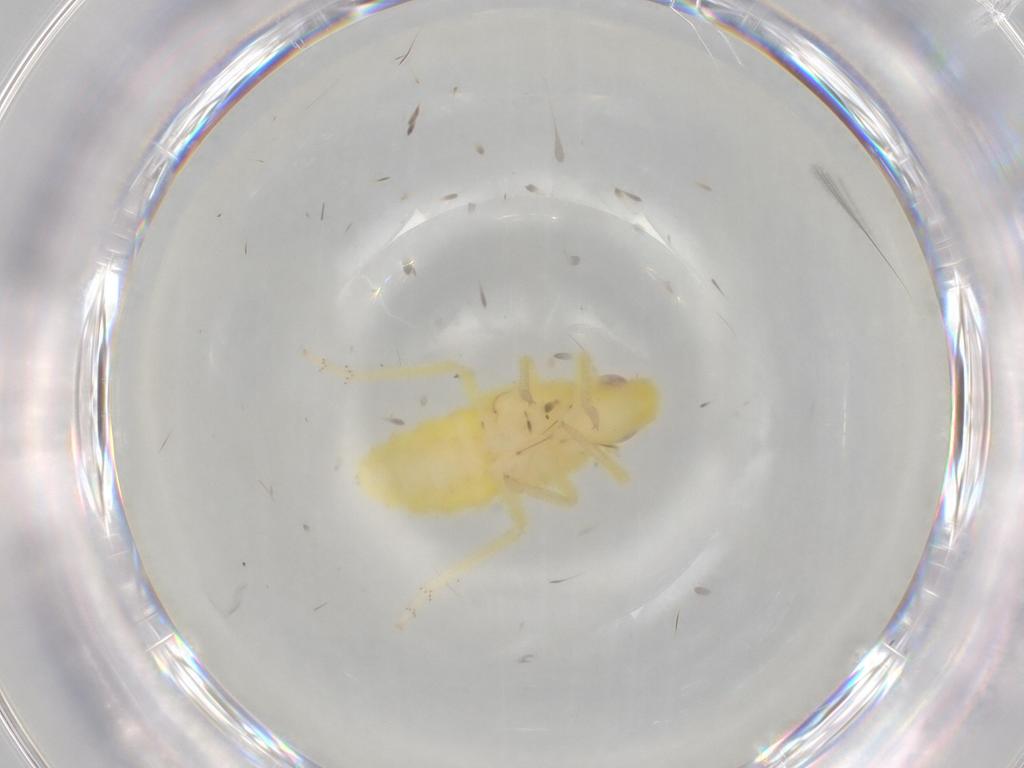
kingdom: Animalia
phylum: Arthropoda
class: Insecta
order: Hemiptera
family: Tropiduchidae
